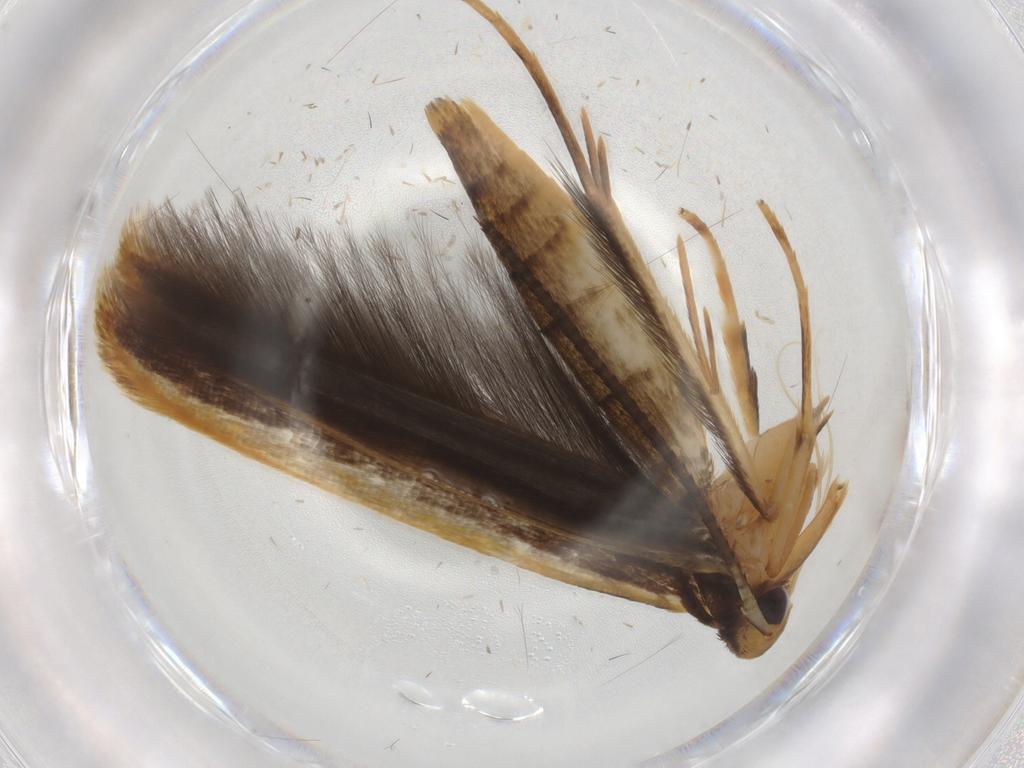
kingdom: Animalia
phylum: Arthropoda
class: Insecta
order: Lepidoptera
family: Pterolonchidae
